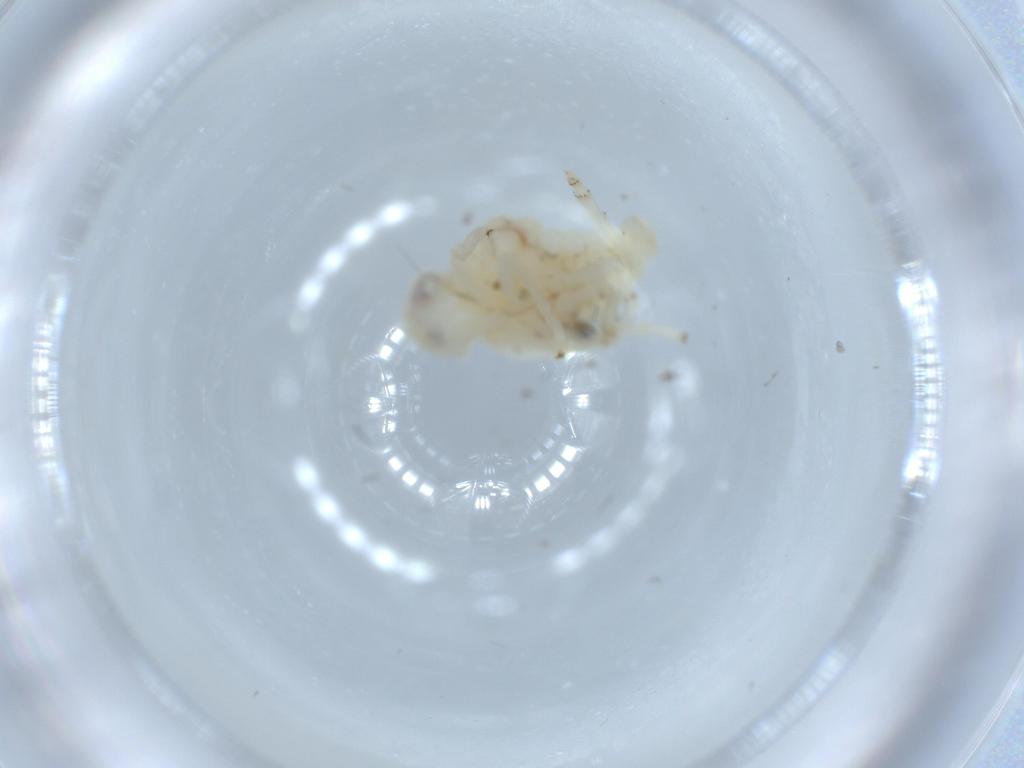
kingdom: Animalia
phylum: Arthropoda
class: Insecta
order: Hemiptera
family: Nogodinidae
